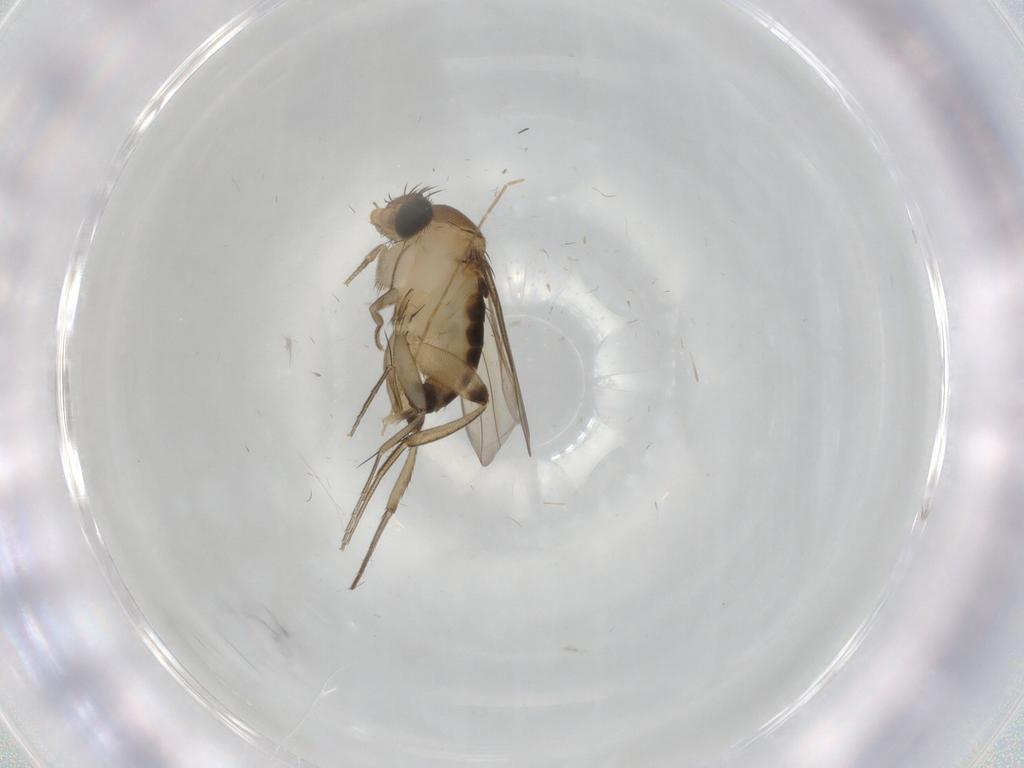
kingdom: Animalia
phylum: Arthropoda
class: Insecta
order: Diptera
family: Phoridae
